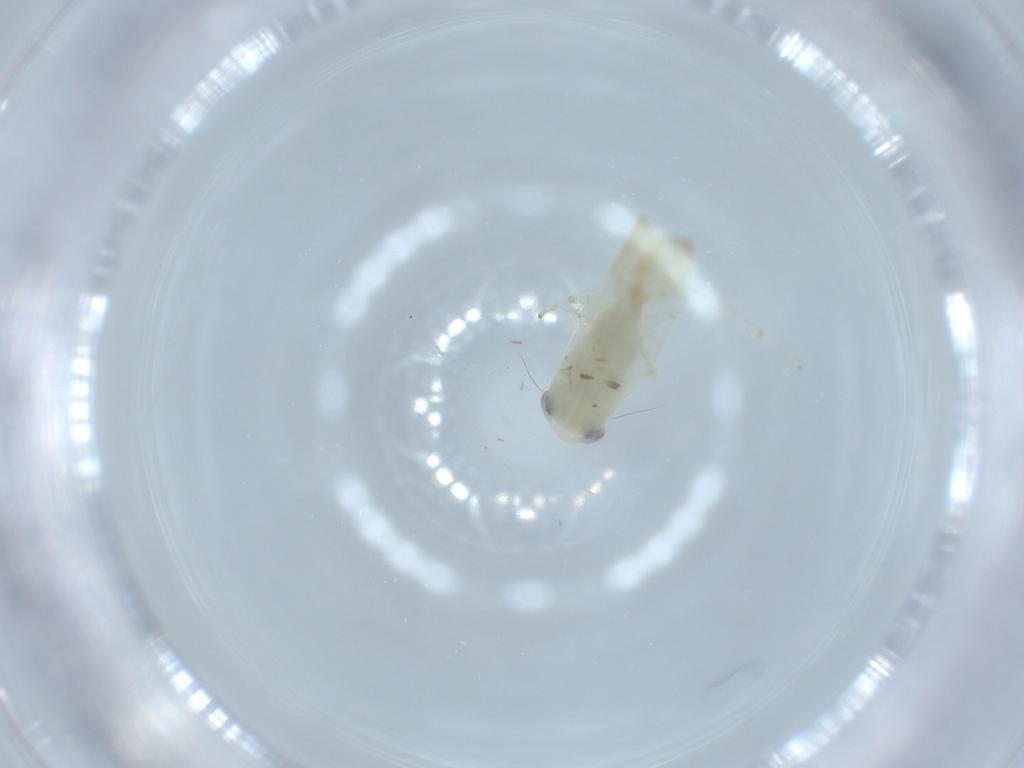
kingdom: Animalia
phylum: Arthropoda
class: Insecta
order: Hemiptera
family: Cicadellidae
